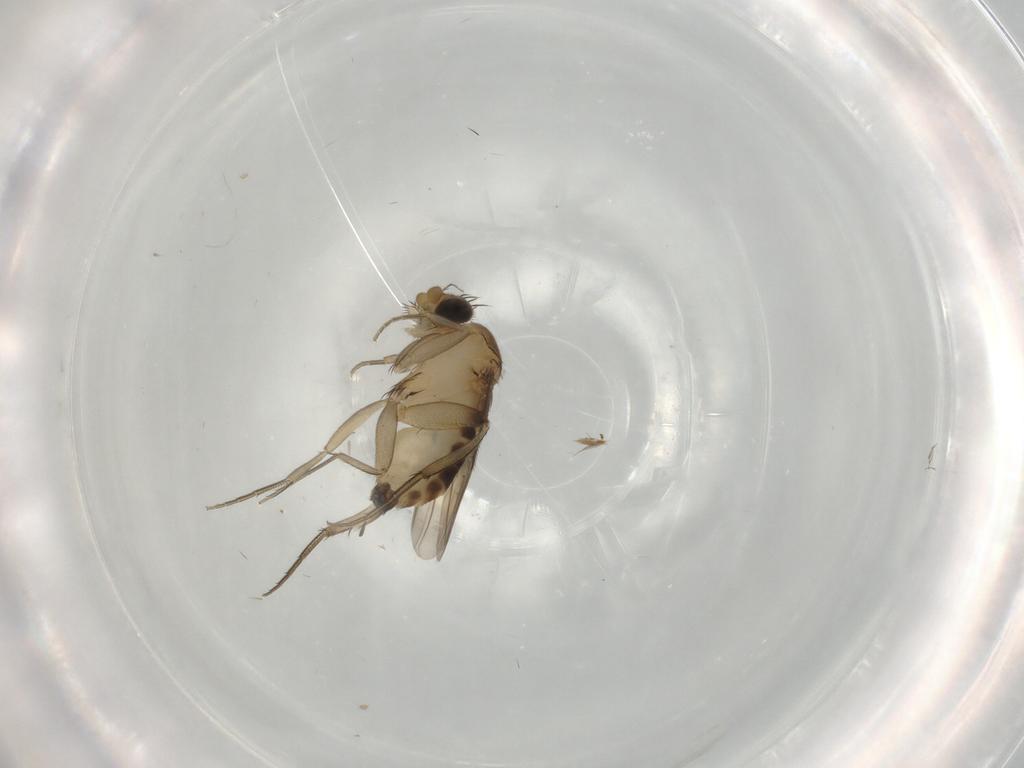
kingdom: Animalia
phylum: Arthropoda
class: Insecta
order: Diptera
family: Phoridae
